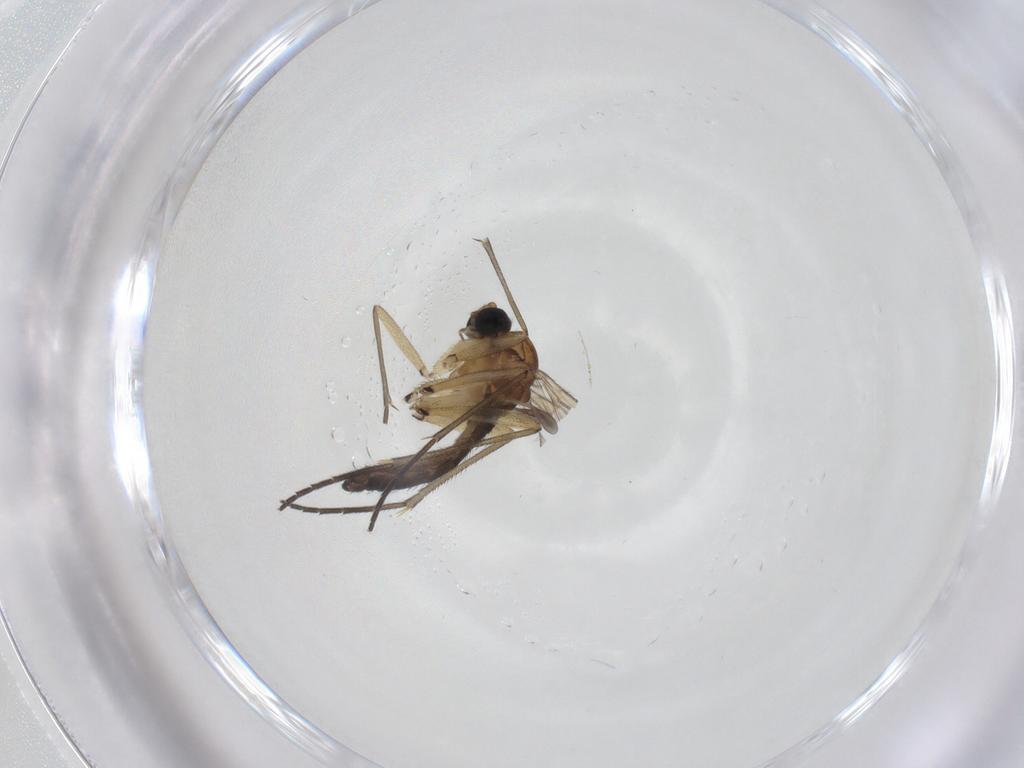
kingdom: Animalia
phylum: Arthropoda
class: Insecta
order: Diptera
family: Sciaridae
